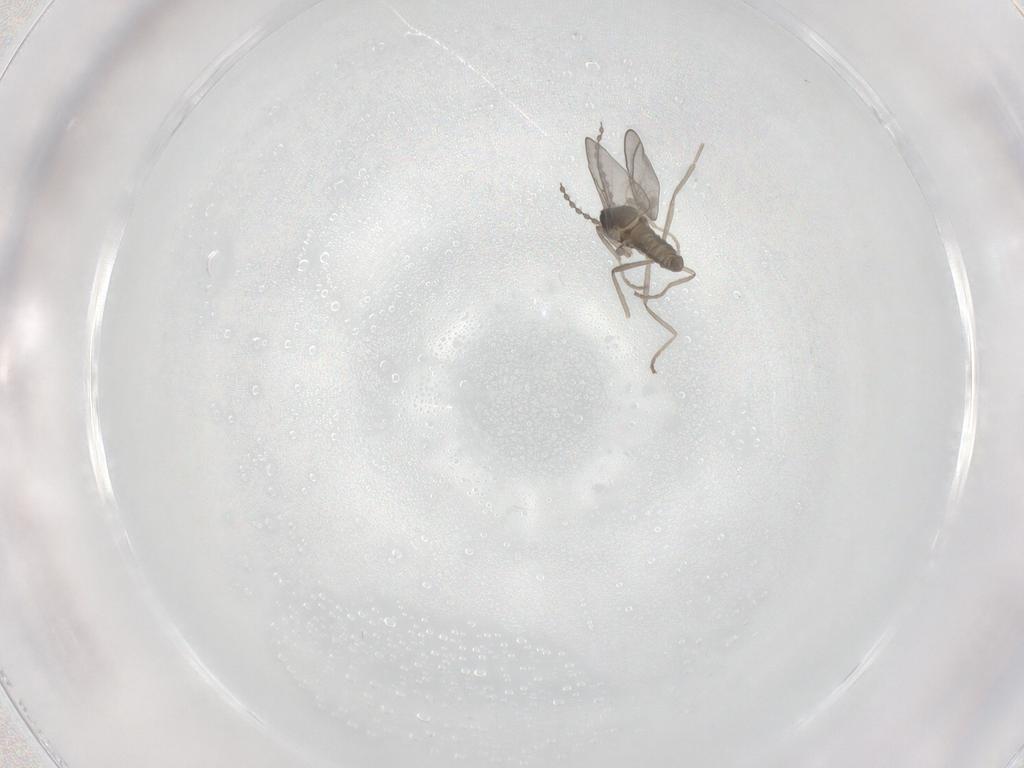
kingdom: Animalia
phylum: Arthropoda
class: Insecta
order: Diptera
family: Cecidomyiidae
